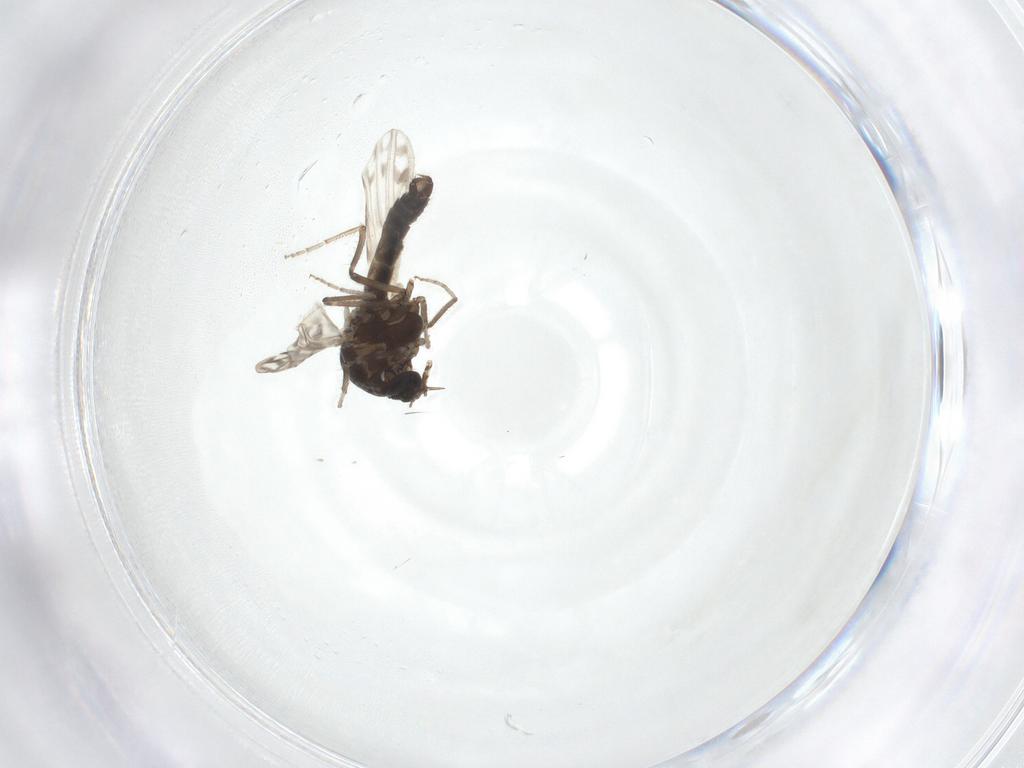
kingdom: Animalia
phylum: Arthropoda
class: Insecta
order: Diptera
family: Ceratopogonidae
